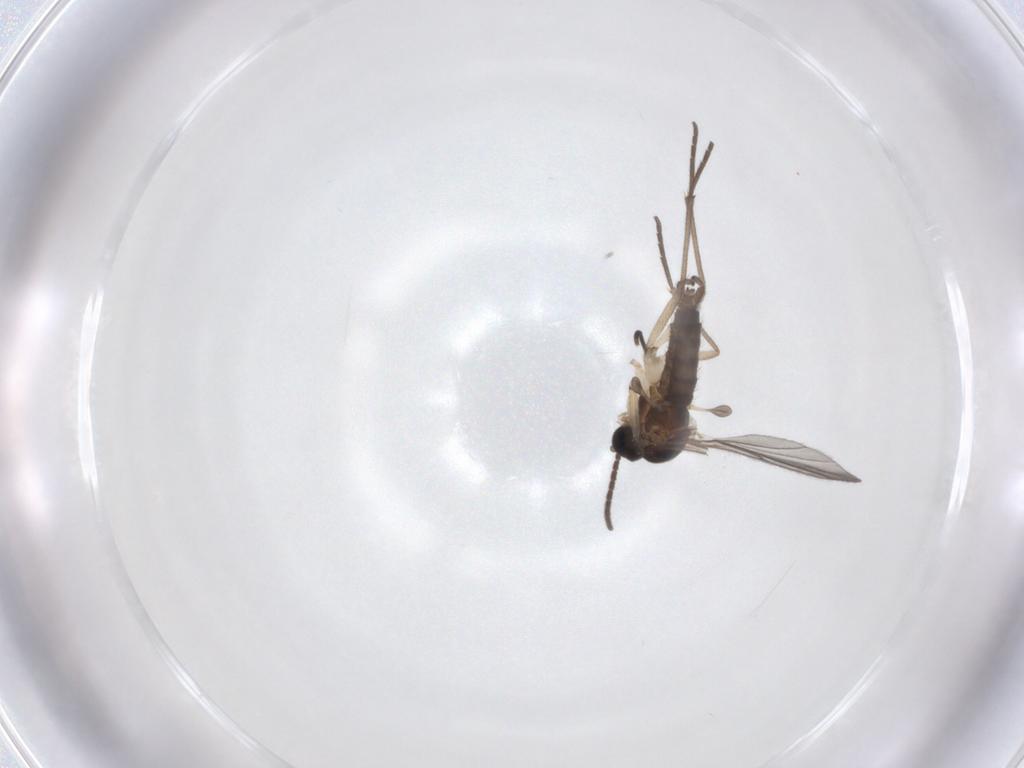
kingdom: Animalia
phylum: Arthropoda
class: Insecta
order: Diptera
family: Sciaridae
